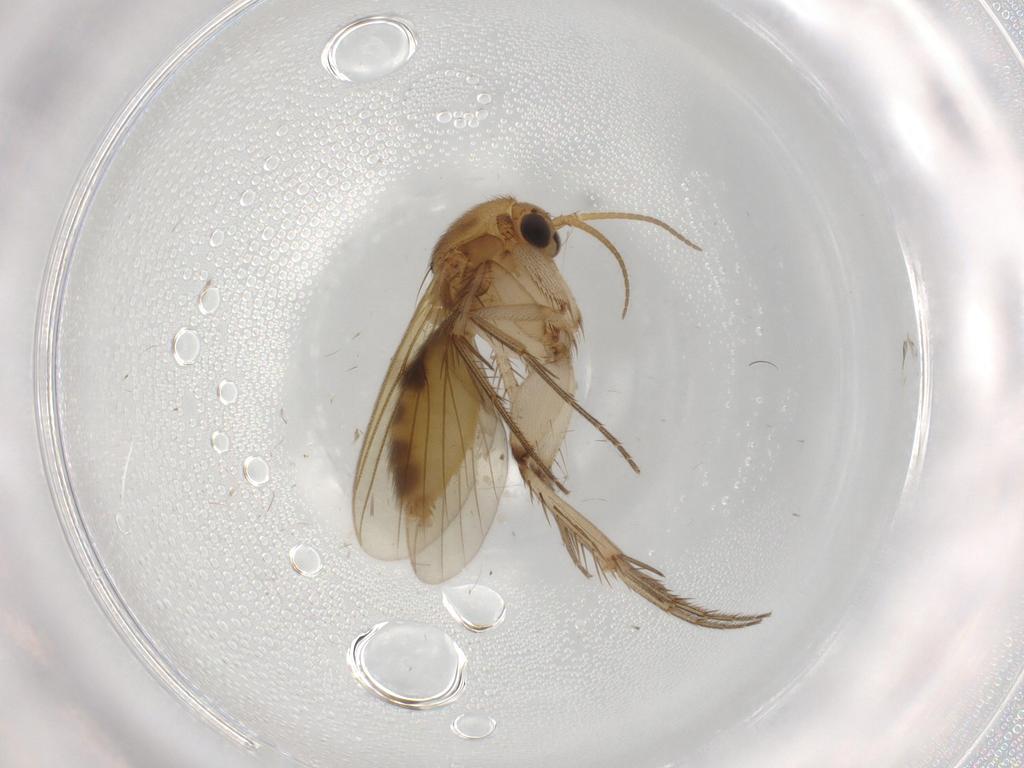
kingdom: Animalia
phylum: Arthropoda
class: Insecta
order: Diptera
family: Mycetophilidae
